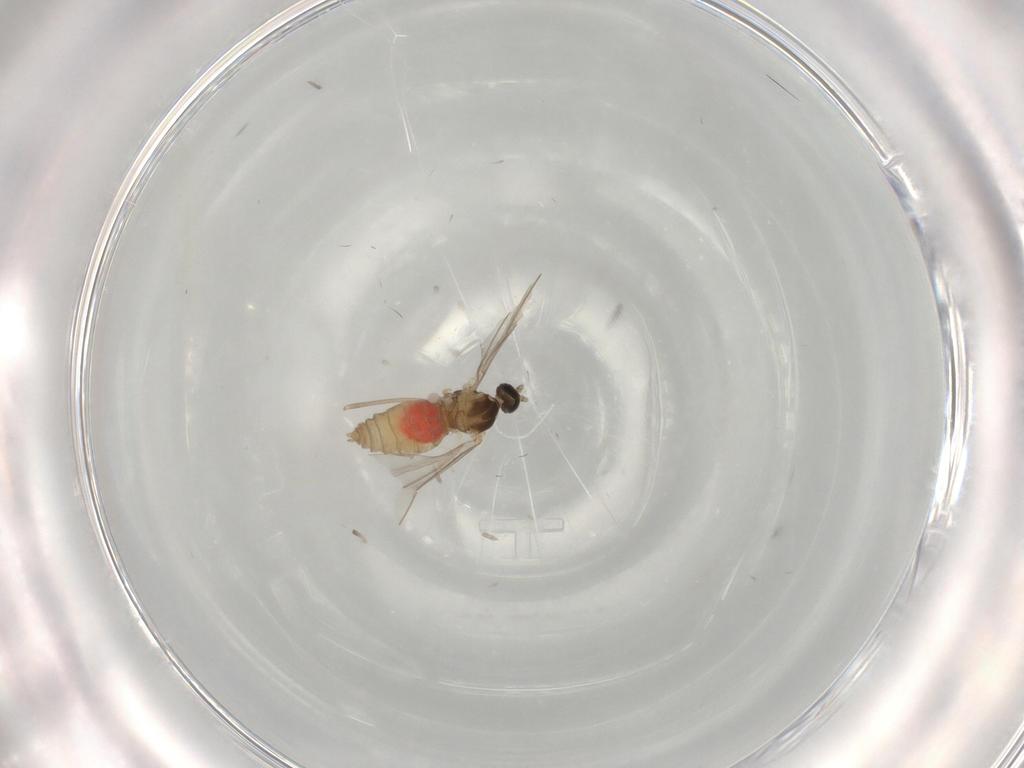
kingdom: Animalia
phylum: Arthropoda
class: Insecta
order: Diptera
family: Cecidomyiidae
